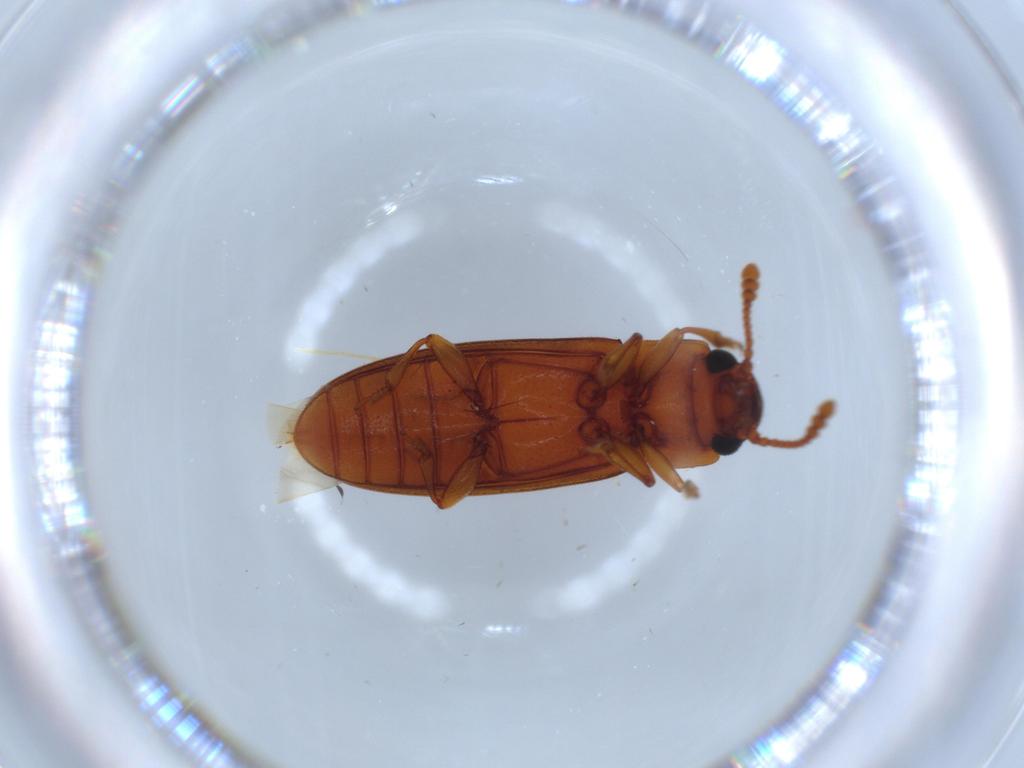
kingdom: Animalia
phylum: Arthropoda
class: Insecta
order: Coleoptera
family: Erotylidae
